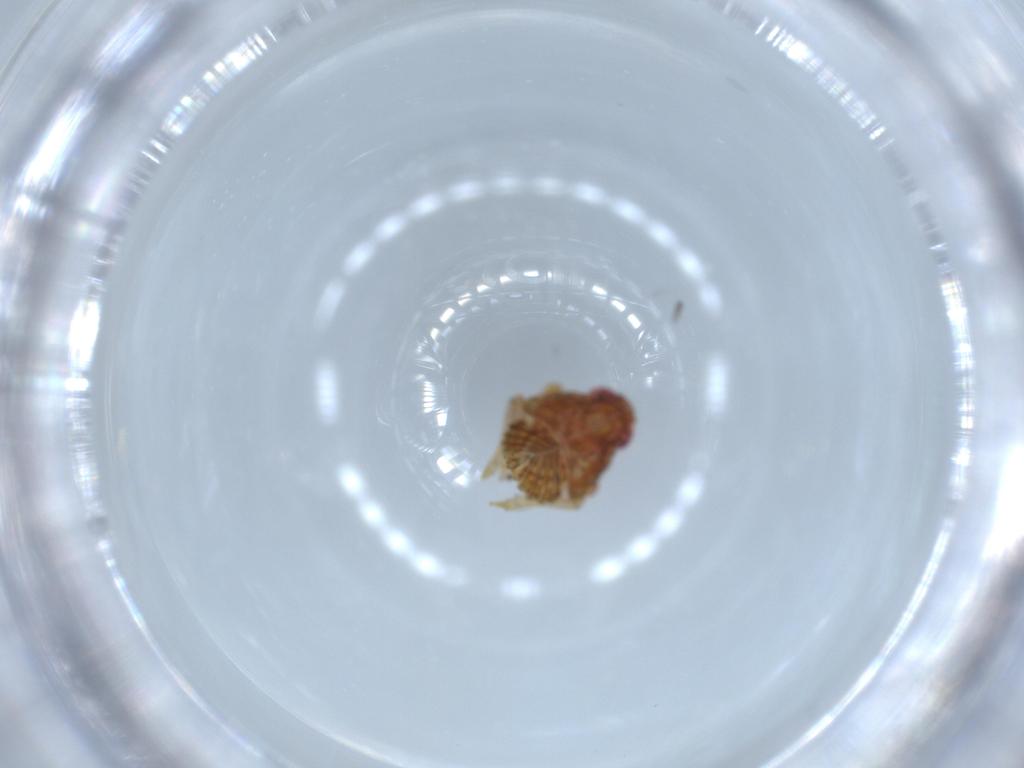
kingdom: Animalia
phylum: Arthropoda
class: Insecta
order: Hemiptera
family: Issidae
